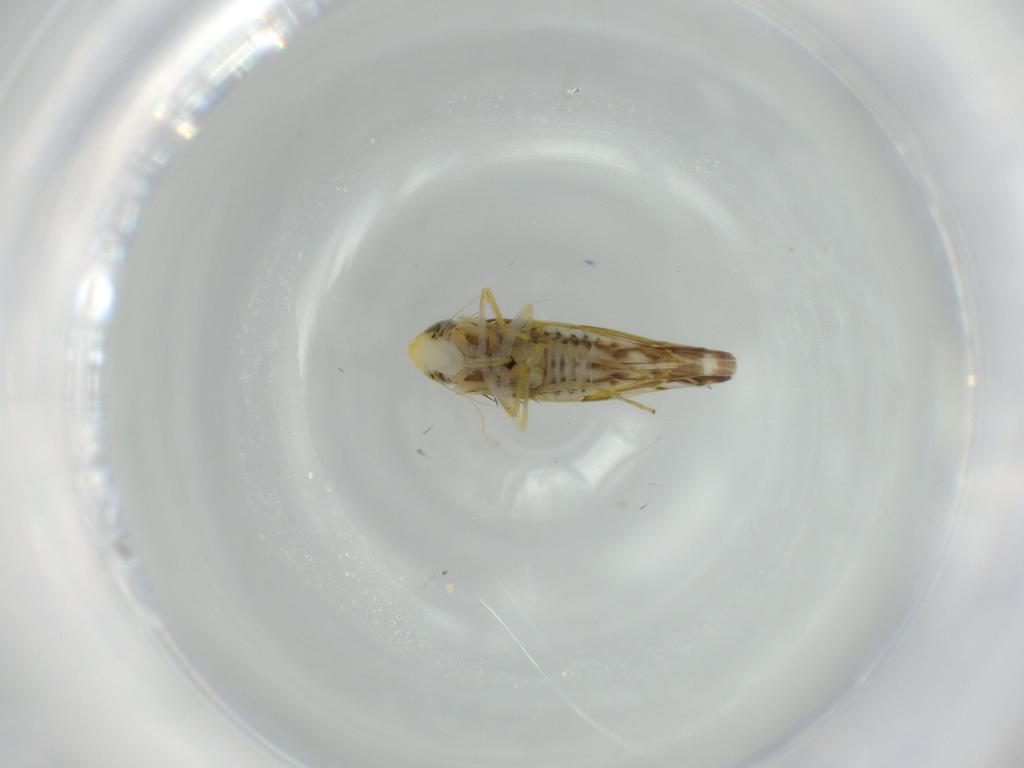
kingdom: Animalia
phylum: Arthropoda
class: Insecta
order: Hemiptera
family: Cicadellidae
